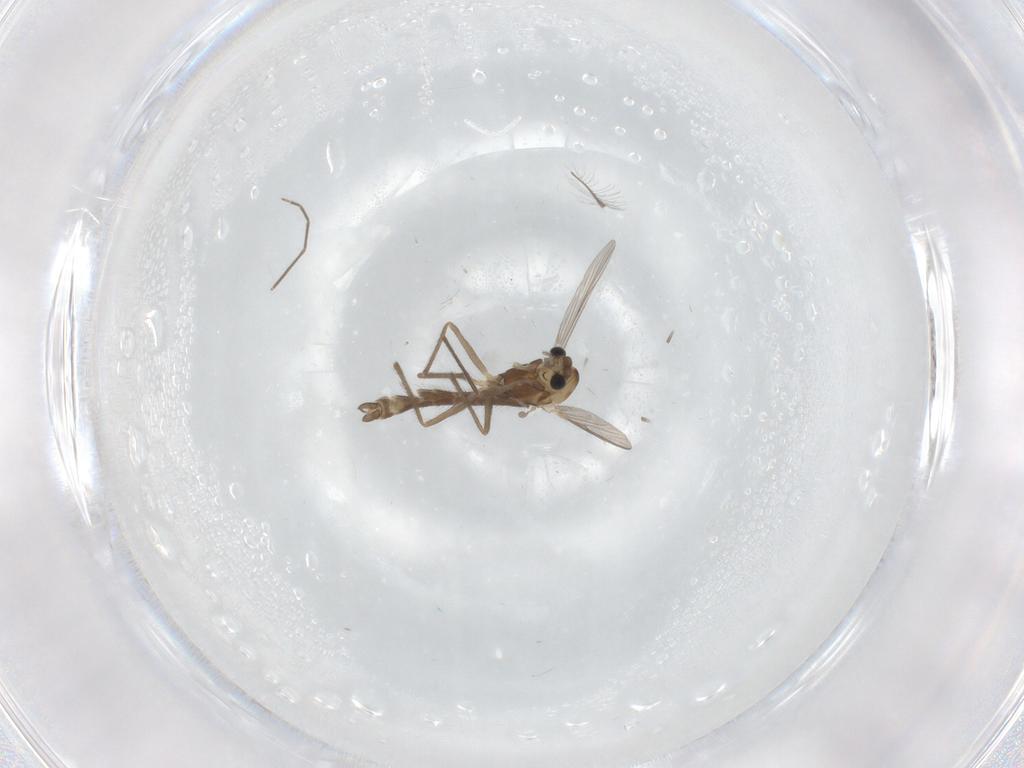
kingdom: Animalia
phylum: Arthropoda
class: Insecta
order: Diptera
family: Chironomidae
